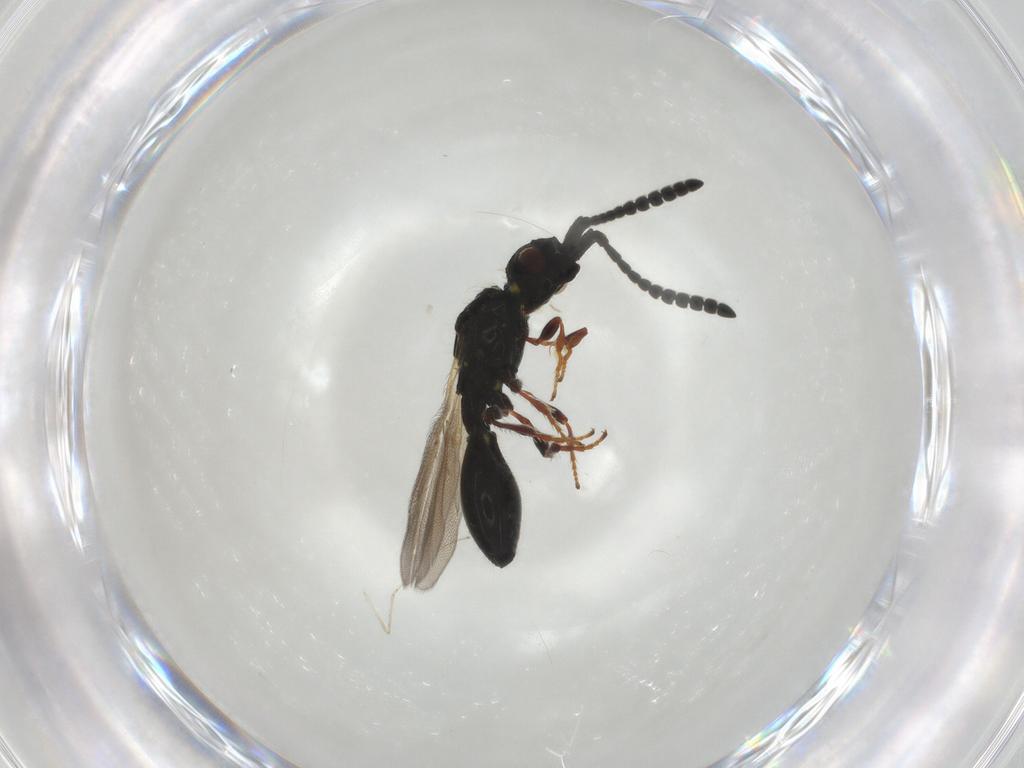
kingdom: Animalia
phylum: Arthropoda
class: Insecta
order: Hymenoptera
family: Diapriidae
